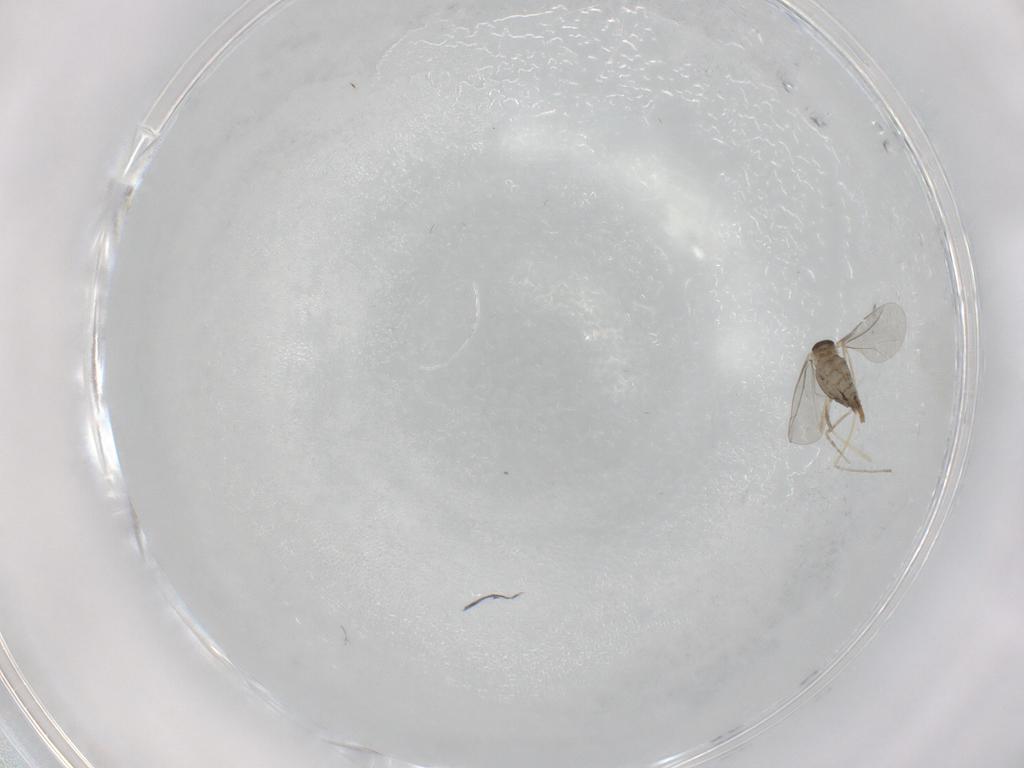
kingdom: Animalia
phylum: Arthropoda
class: Insecta
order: Diptera
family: Cecidomyiidae
